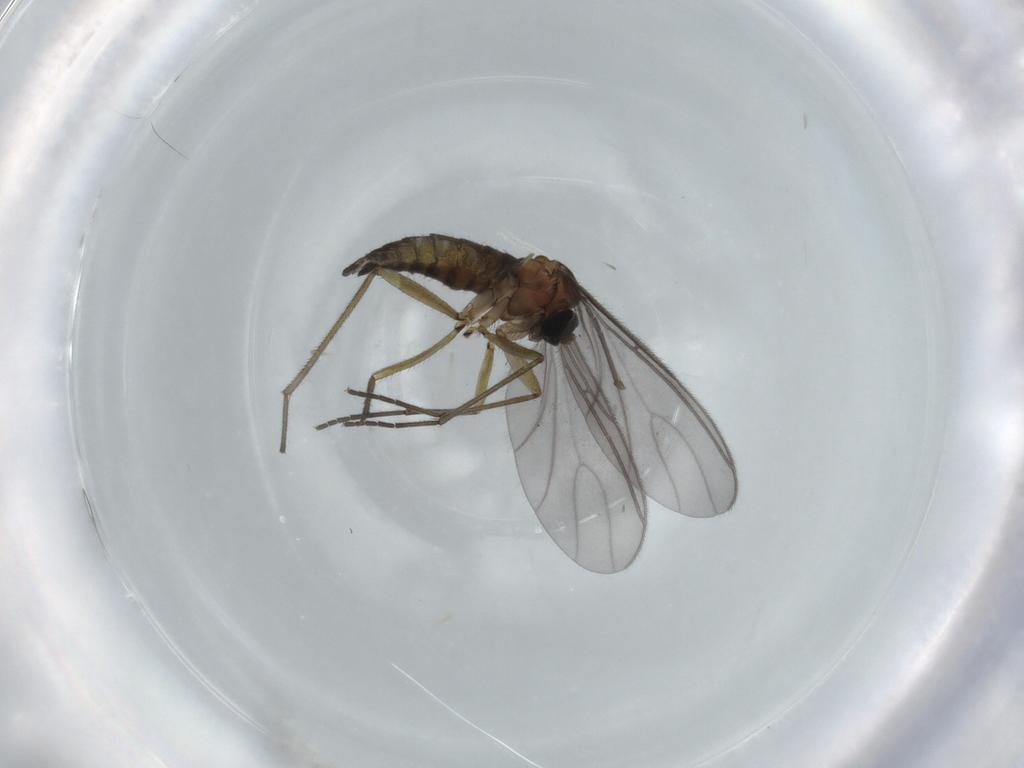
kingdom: Animalia
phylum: Arthropoda
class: Insecta
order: Diptera
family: Sciaridae
